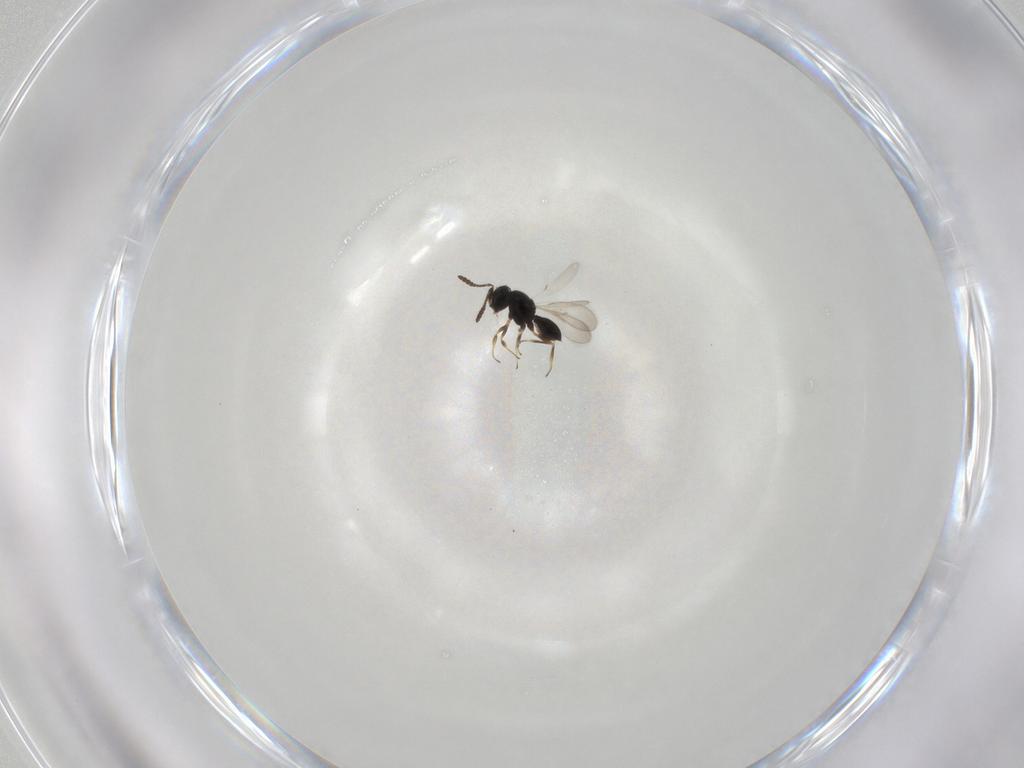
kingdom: Animalia
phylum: Arthropoda
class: Insecta
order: Hymenoptera
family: Scelionidae
